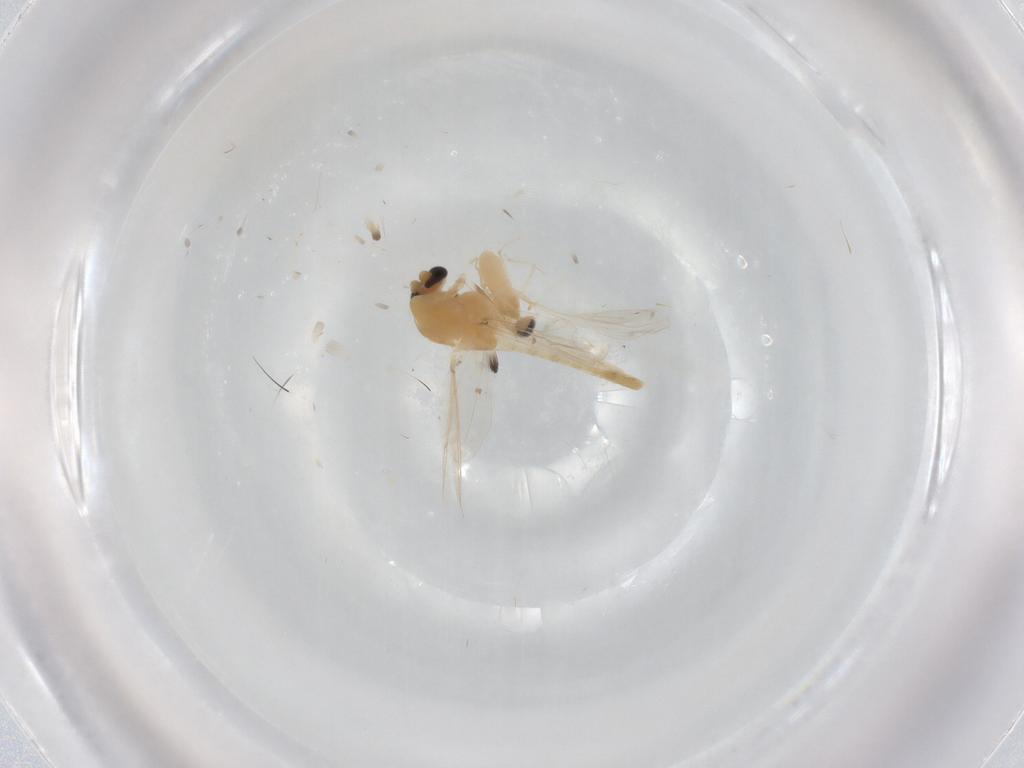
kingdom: Animalia
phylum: Arthropoda
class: Insecta
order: Diptera
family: Chironomidae
